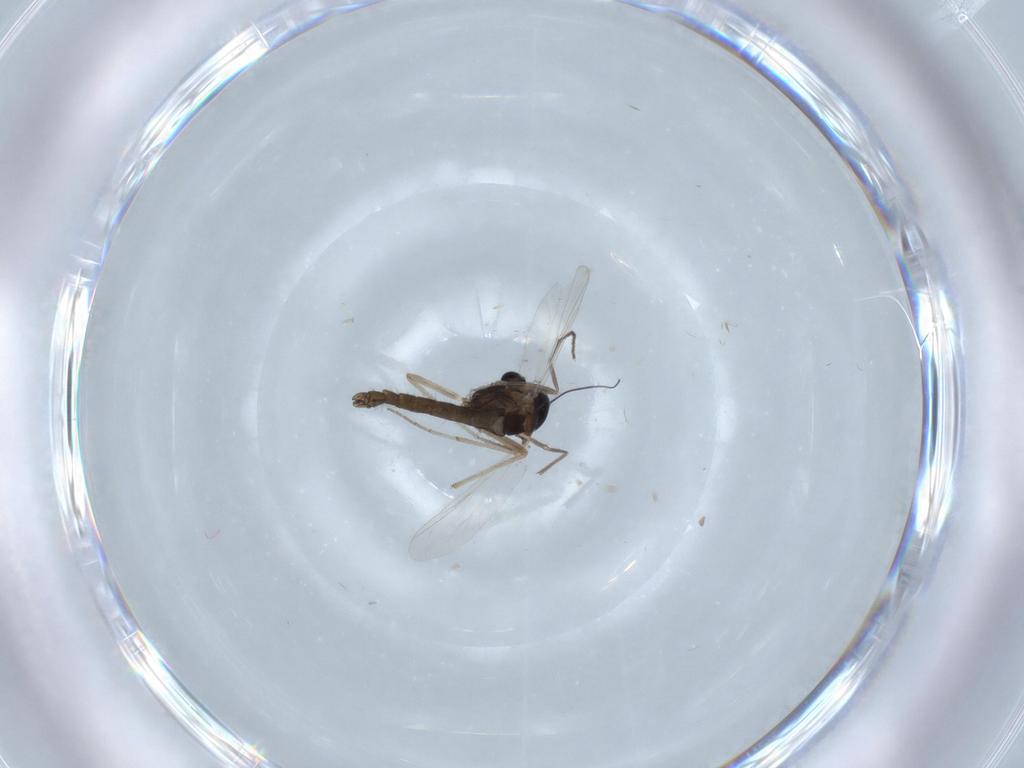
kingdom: Animalia
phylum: Arthropoda
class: Insecta
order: Diptera
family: Chironomidae
